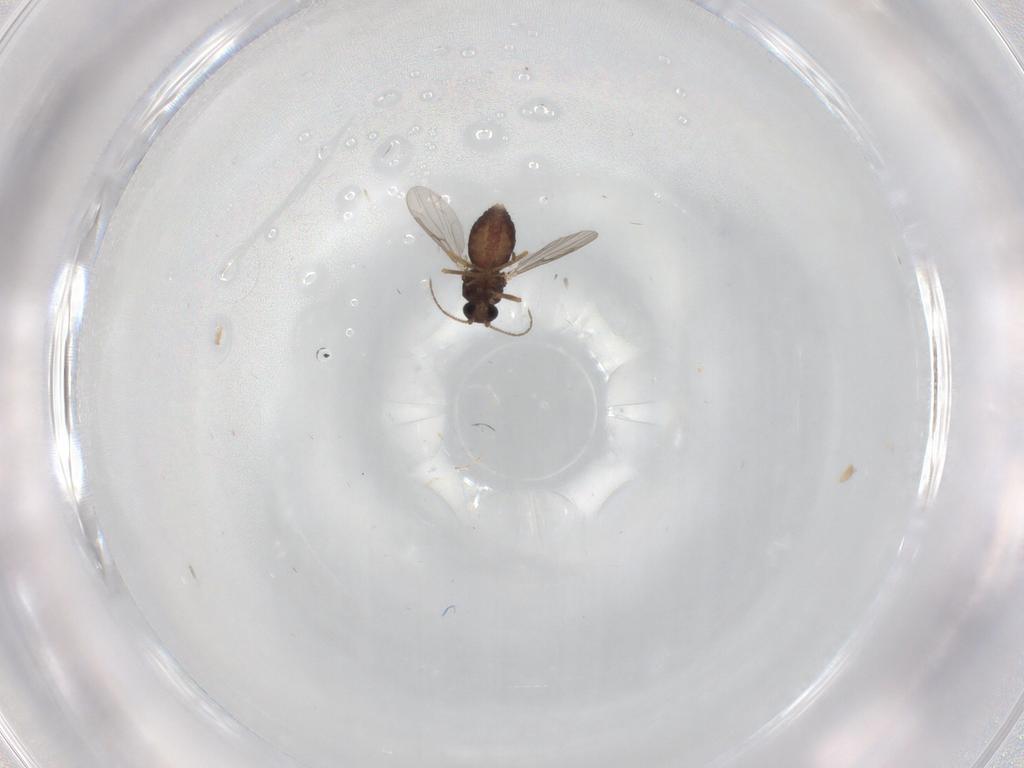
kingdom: Animalia
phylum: Arthropoda
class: Insecta
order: Diptera
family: Ceratopogonidae
